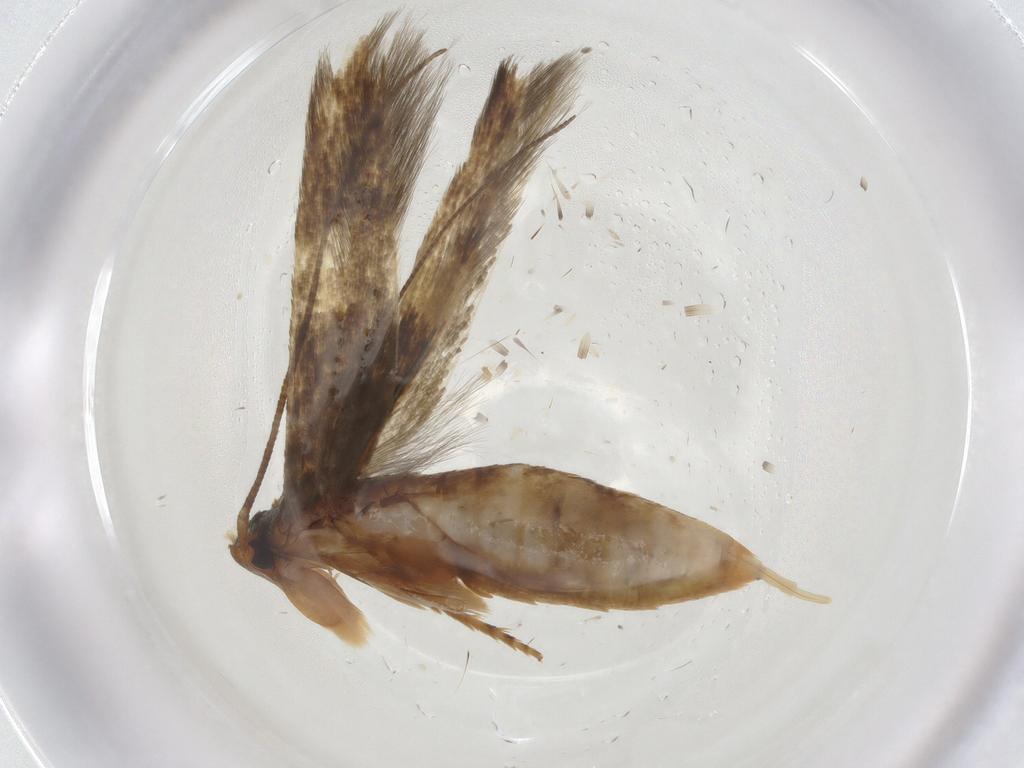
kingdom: Animalia
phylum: Arthropoda
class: Insecta
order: Lepidoptera
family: Tineidae
